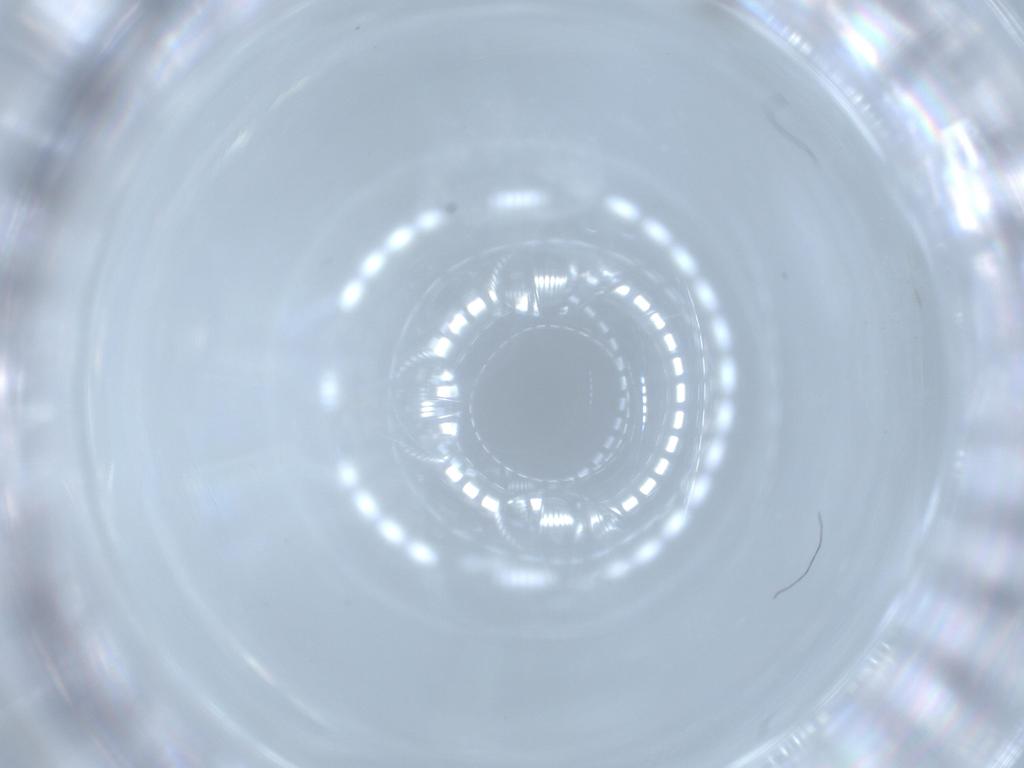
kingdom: Animalia
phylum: Arthropoda
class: Insecta
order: Diptera
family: Cecidomyiidae
